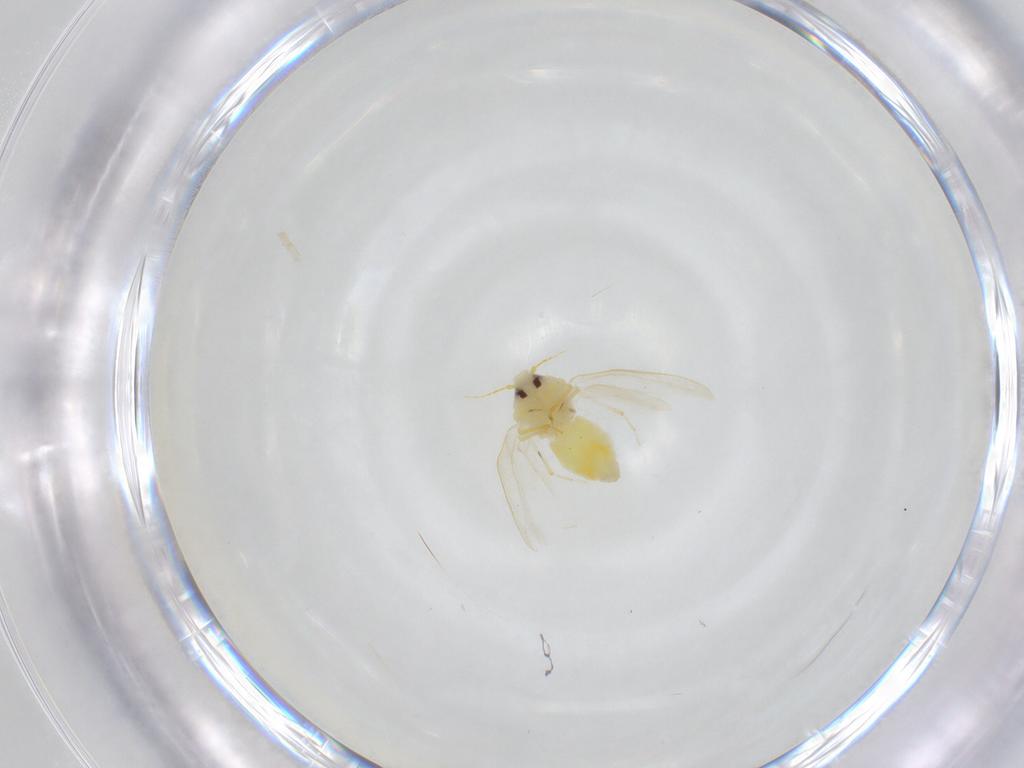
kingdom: Animalia
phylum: Arthropoda
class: Insecta
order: Hemiptera
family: Aleyrodidae
